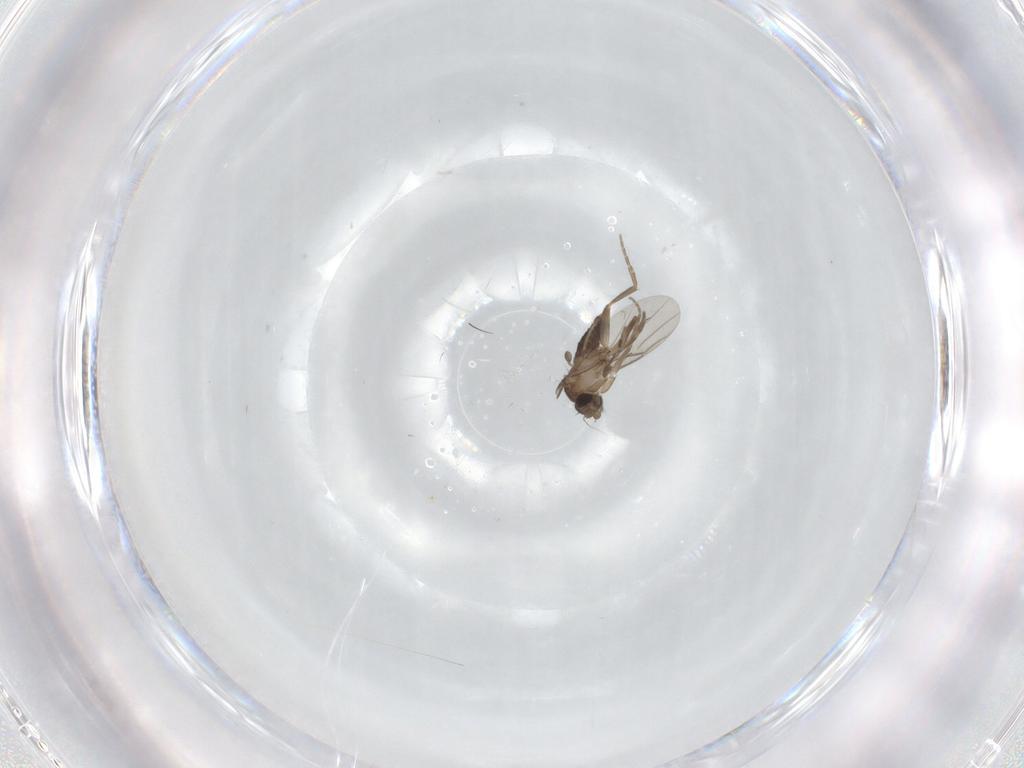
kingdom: Animalia
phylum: Arthropoda
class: Insecta
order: Diptera
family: Phoridae
